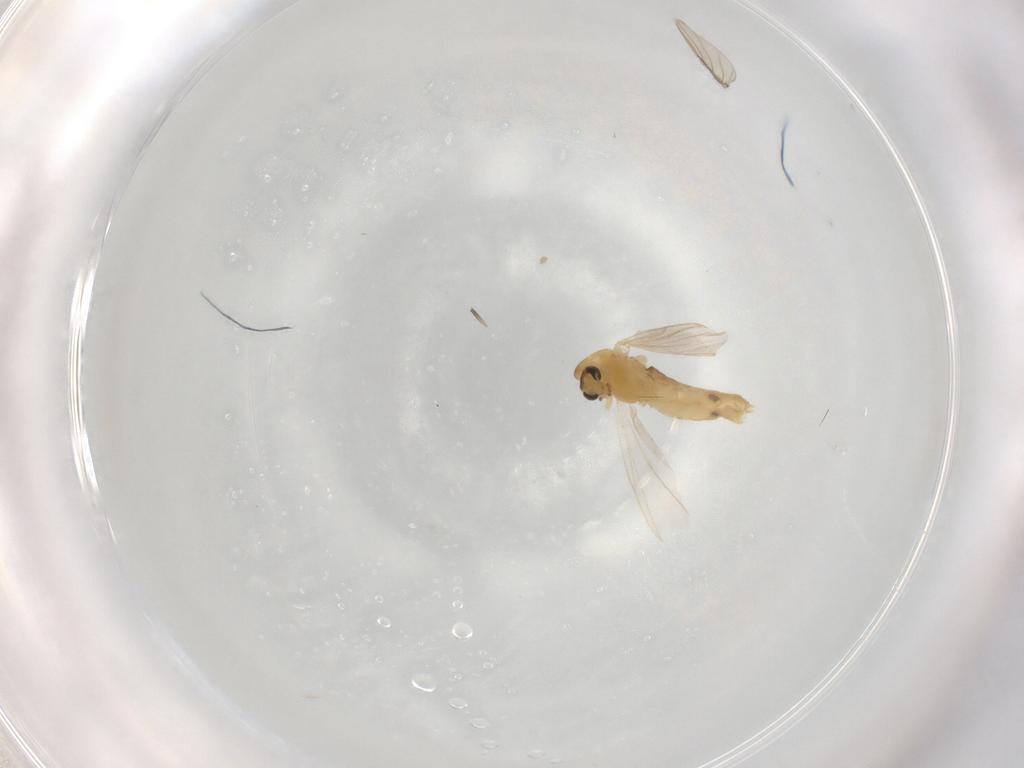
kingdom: Animalia
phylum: Arthropoda
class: Insecta
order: Diptera
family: Chironomidae
